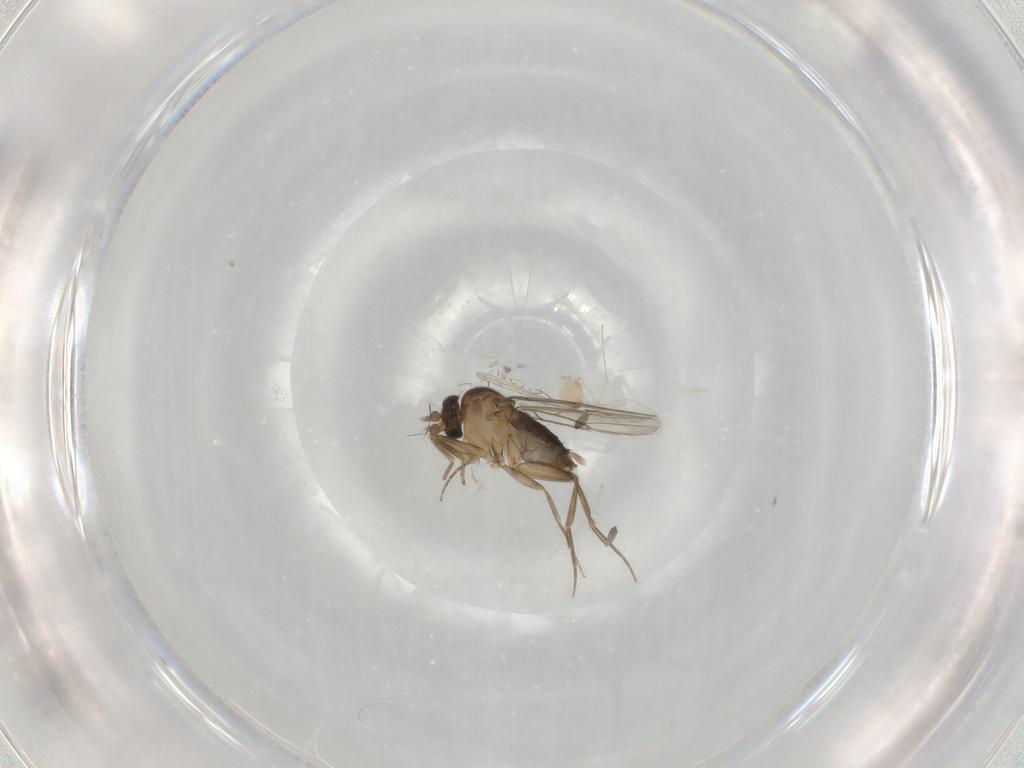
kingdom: Animalia
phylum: Arthropoda
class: Insecta
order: Diptera
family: Phoridae
